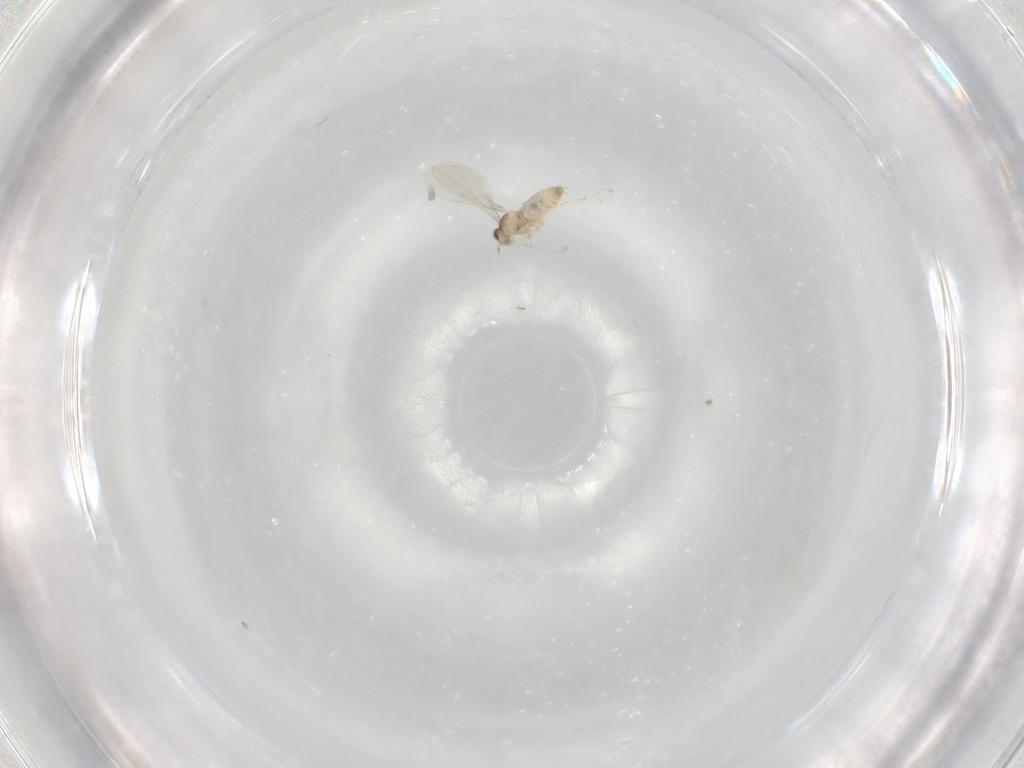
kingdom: Animalia
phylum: Arthropoda
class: Insecta
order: Diptera
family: Cecidomyiidae
